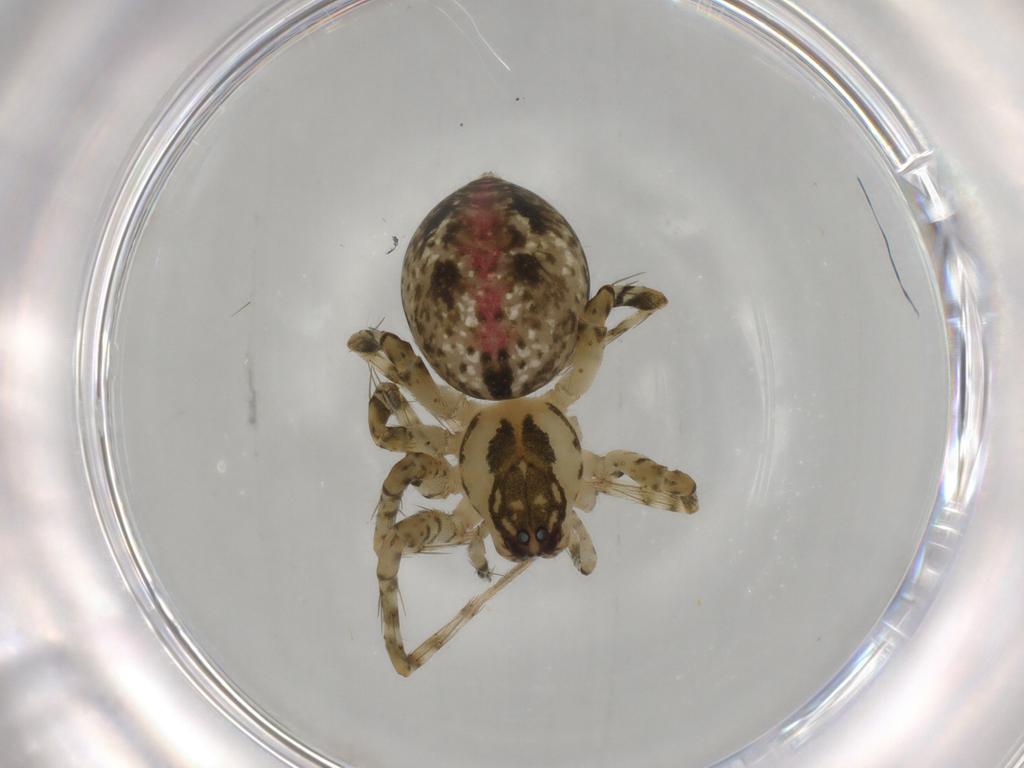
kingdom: Animalia
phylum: Arthropoda
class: Arachnida
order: Araneae
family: Theridiidae
